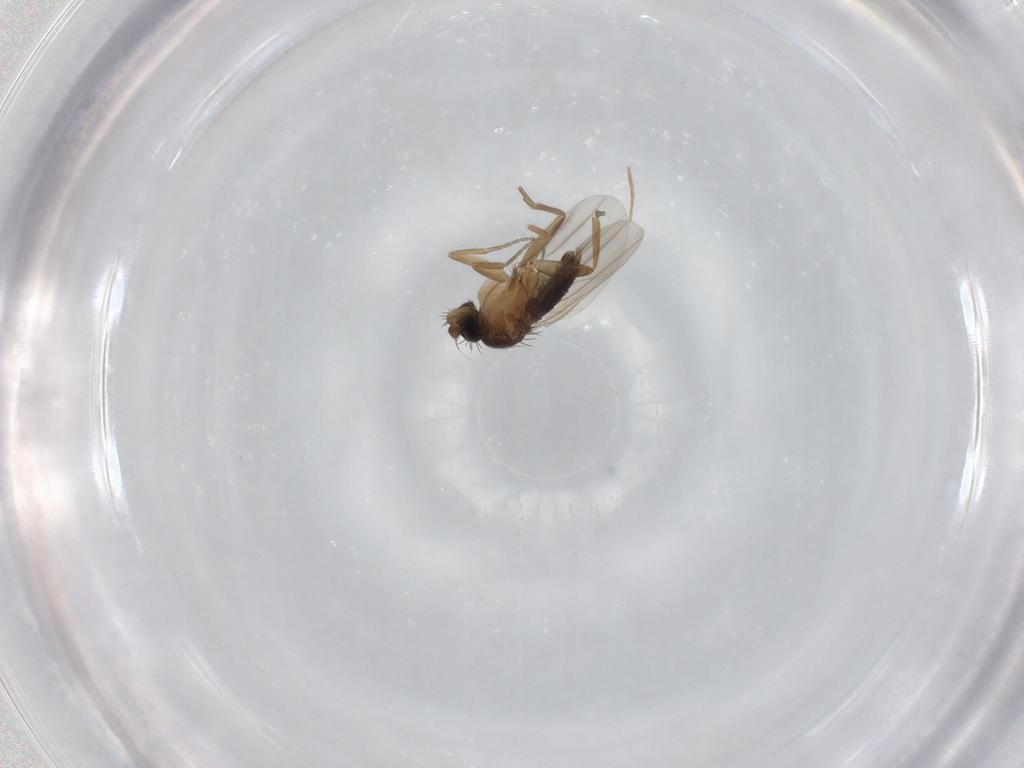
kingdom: Animalia
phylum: Arthropoda
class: Insecta
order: Diptera
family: Phoridae
